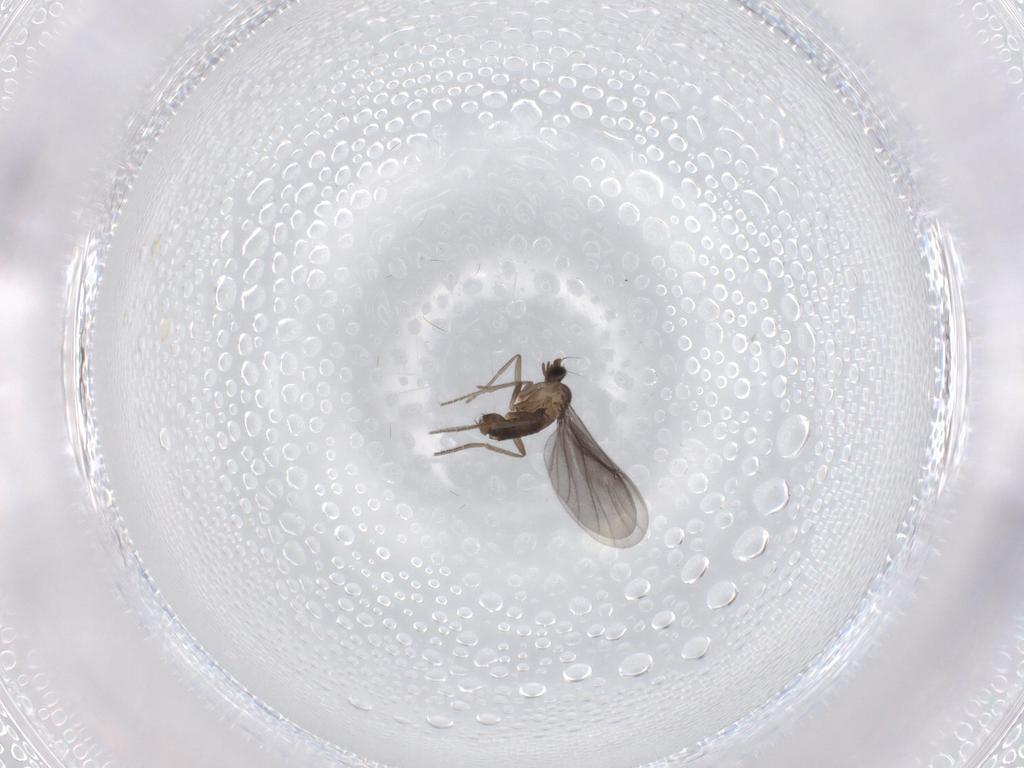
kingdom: Animalia
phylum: Arthropoda
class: Insecta
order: Diptera
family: Phoridae
